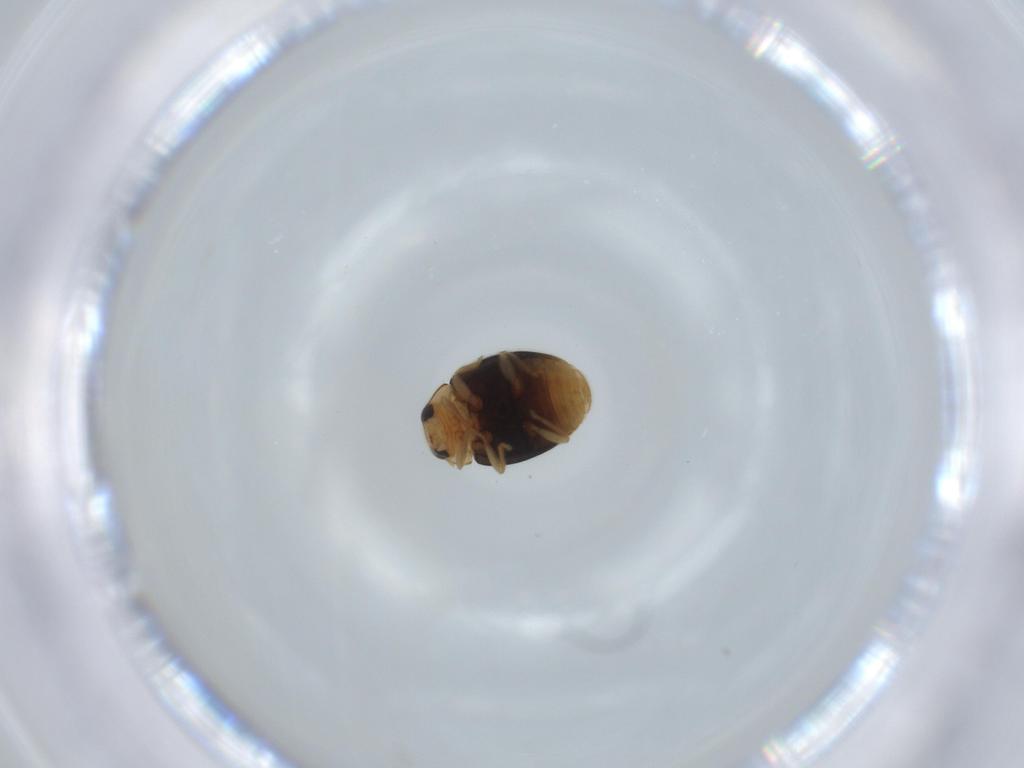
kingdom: Animalia
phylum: Arthropoda
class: Insecta
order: Coleoptera
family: Coccinellidae
